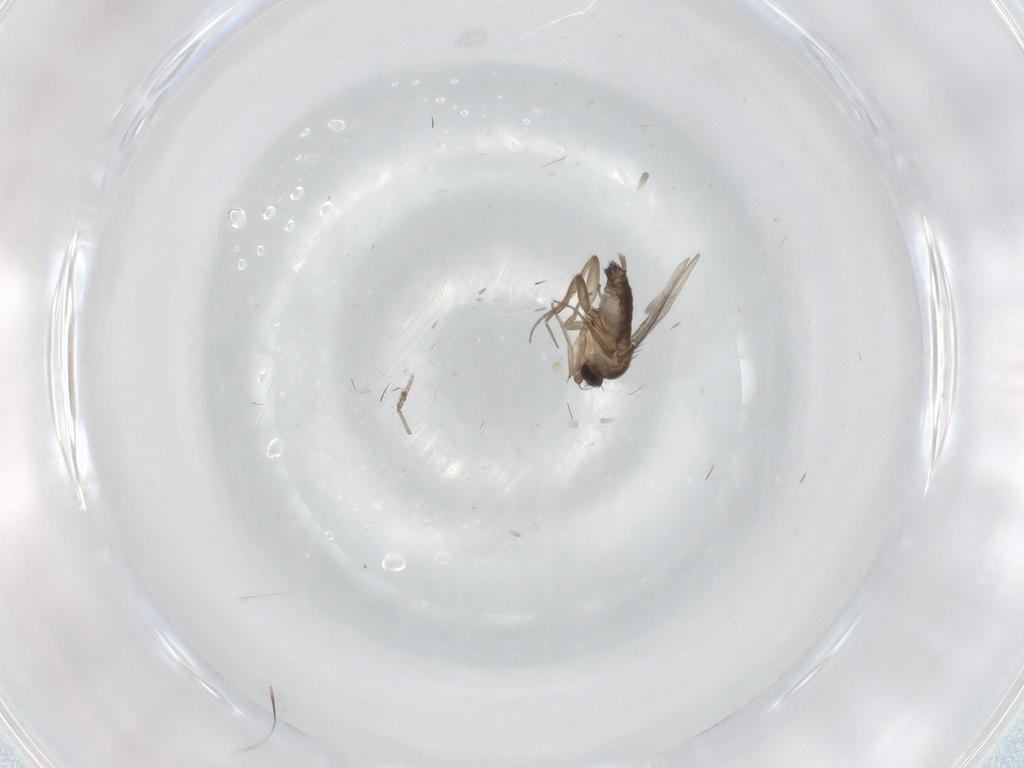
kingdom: Animalia
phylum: Arthropoda
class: Insecta
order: Diptera
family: Phoridae
